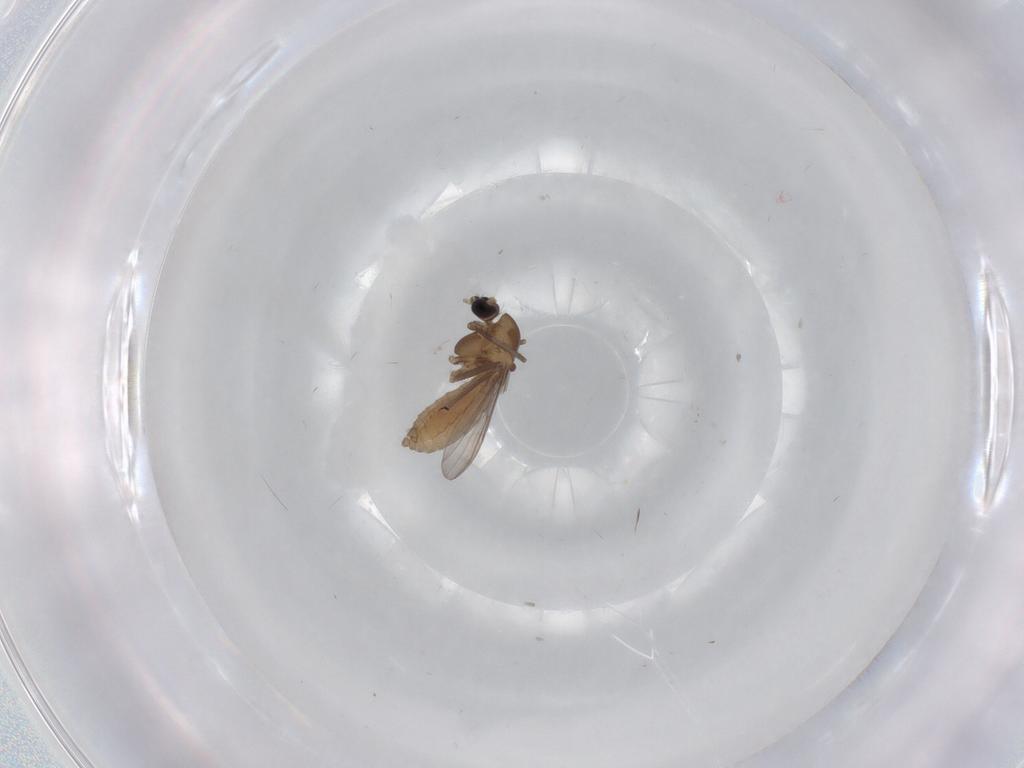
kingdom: Animalia
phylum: Arthropoda
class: Insecta
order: Diptera
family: Chironomidae
